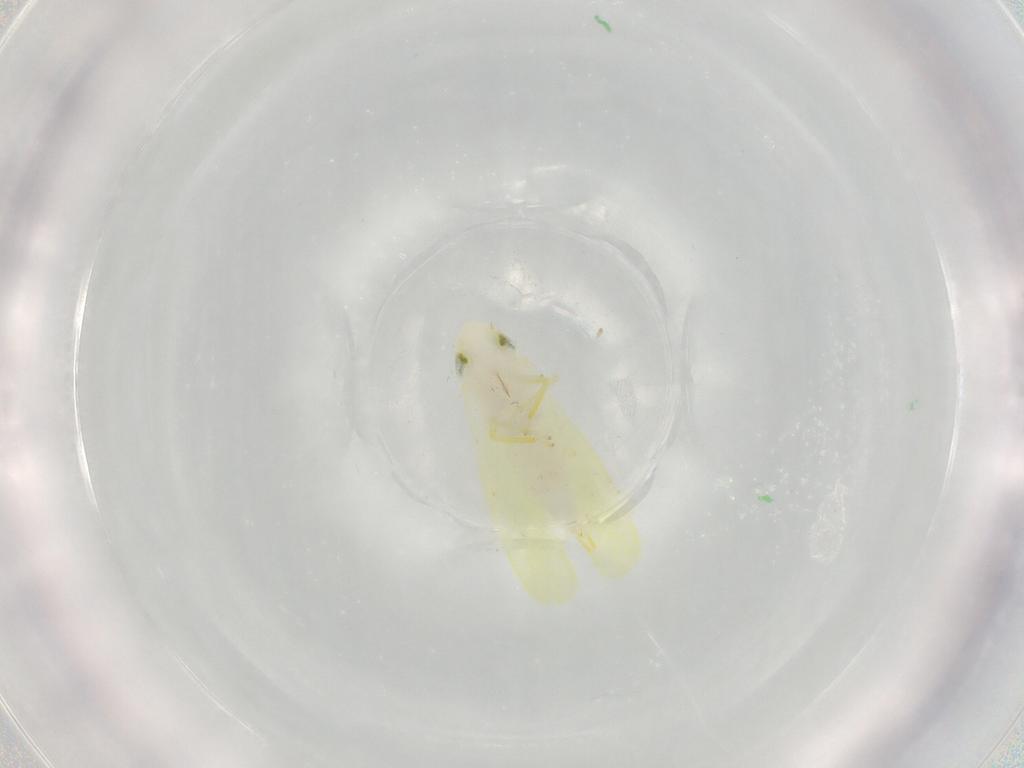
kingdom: Animalia
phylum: Arthropoda
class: Insecta
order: Hemiptera
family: Cicadellidae
